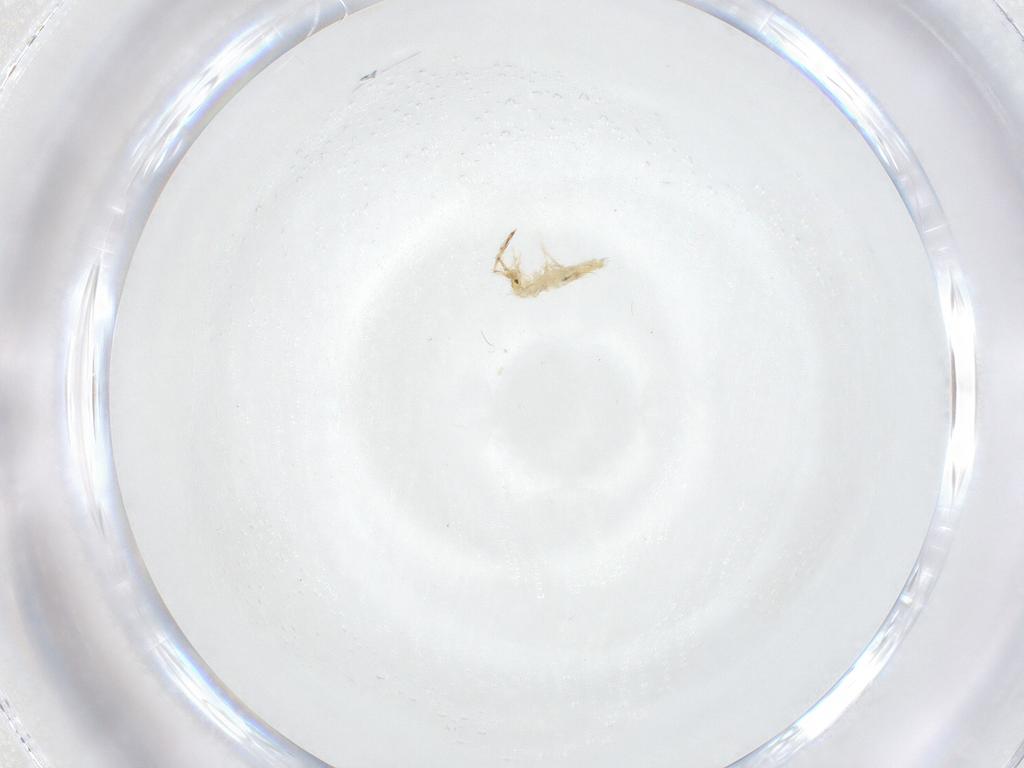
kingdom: Animalia
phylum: Arthropoda
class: Collembola
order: Entomobryomorpha
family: Entomobryidae
